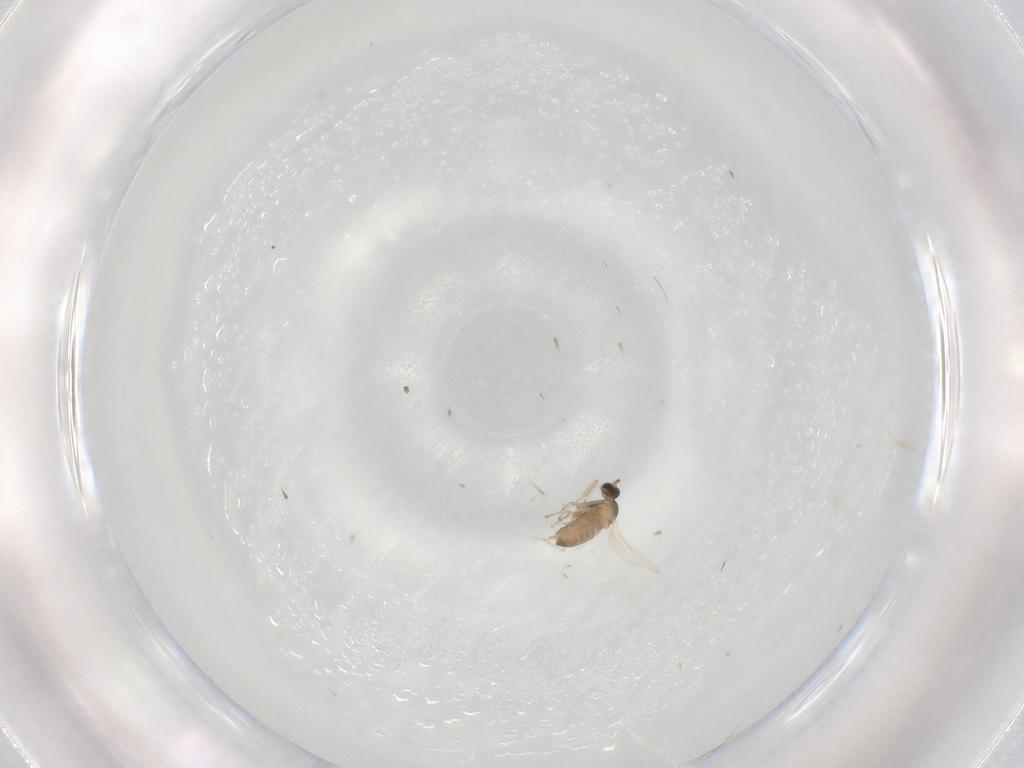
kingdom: Animalia
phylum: Arthropoda
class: Insecta
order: Diptera
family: Cecidomyiidae
